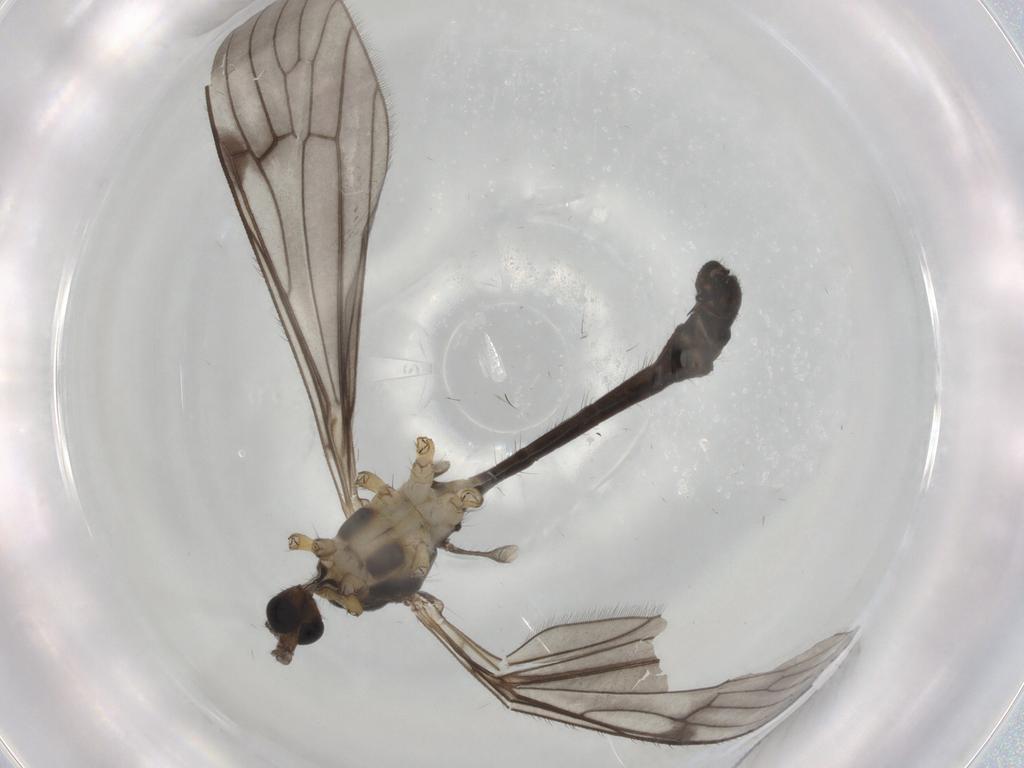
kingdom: Animalia
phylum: Arthropoda
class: Insecta
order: Diptera
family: Limoniidae
